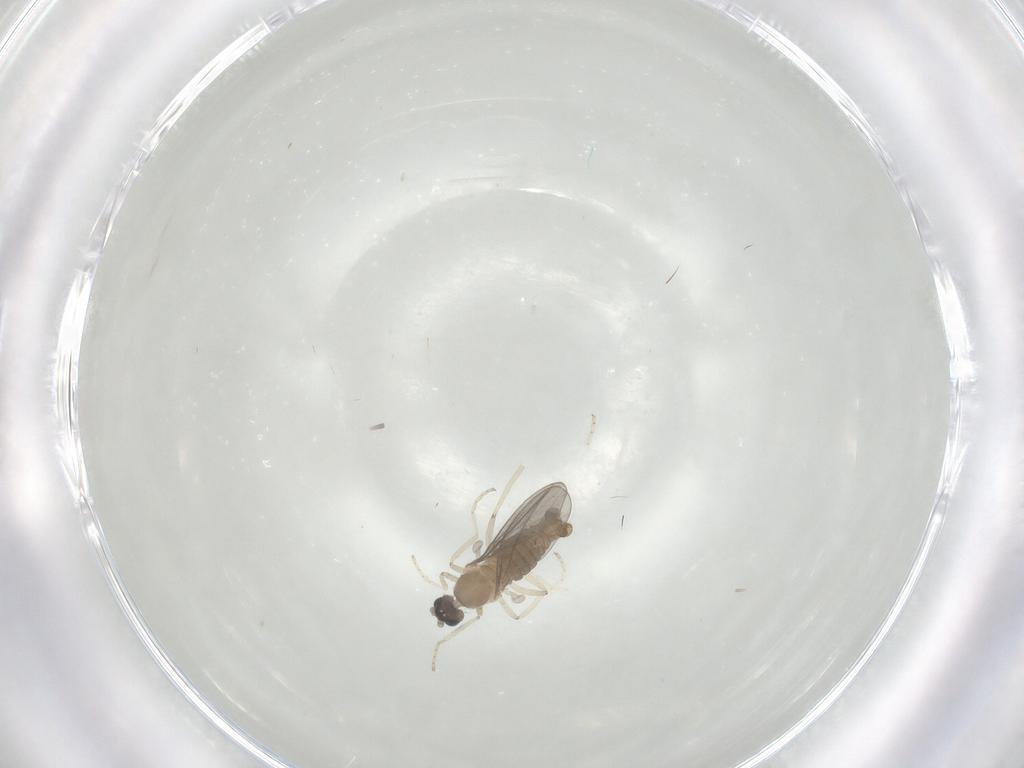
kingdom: Animalia
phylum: Arthropoda
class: Insecta
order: Diptera
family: Cecidomyiidae
